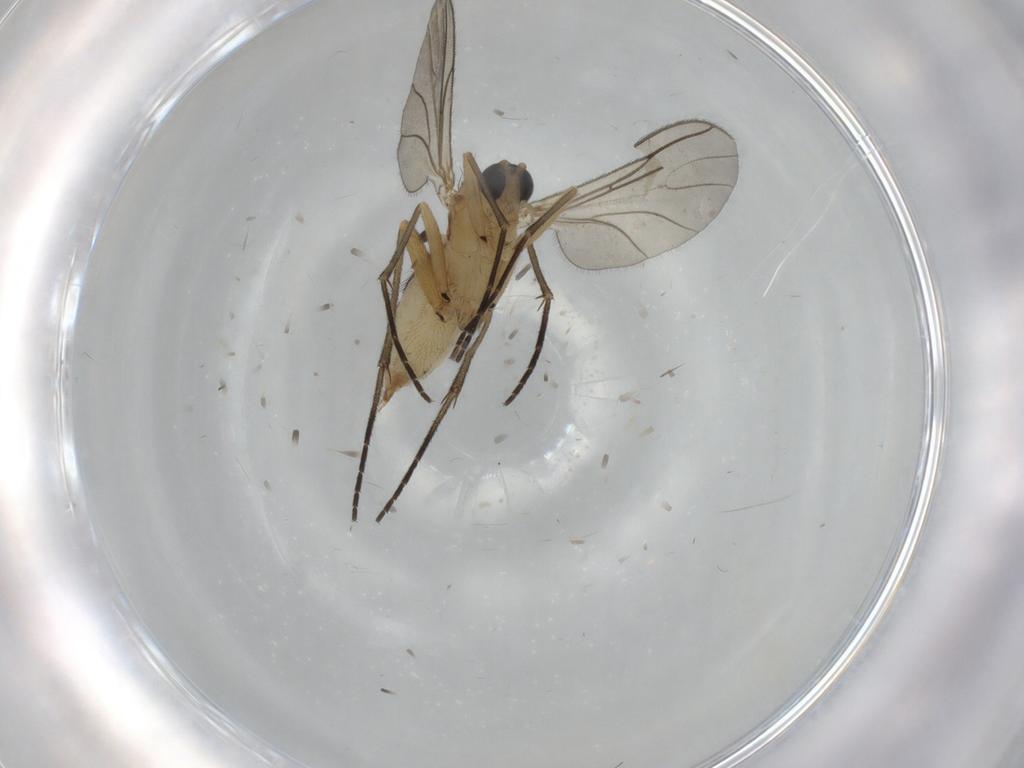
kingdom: Animalia
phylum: Arthropoda
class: Insecta
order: Diptera
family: Sciaridae
